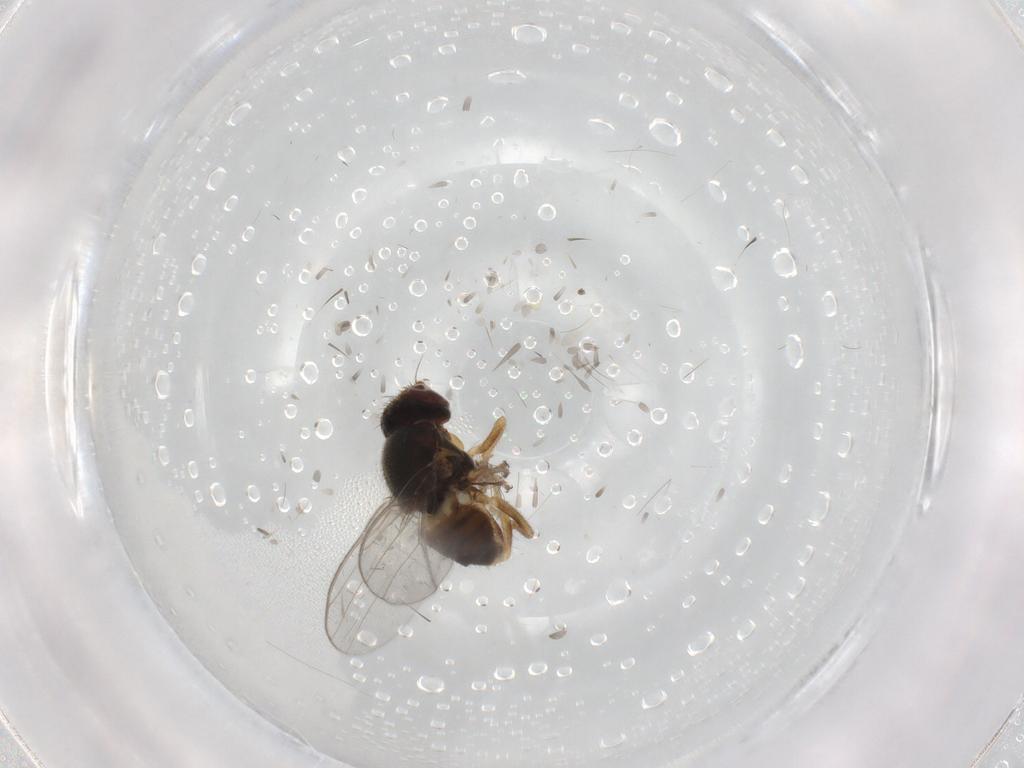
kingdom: Animalia
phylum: Arthropoda
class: Insecta
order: Diptera
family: Chloropidae
